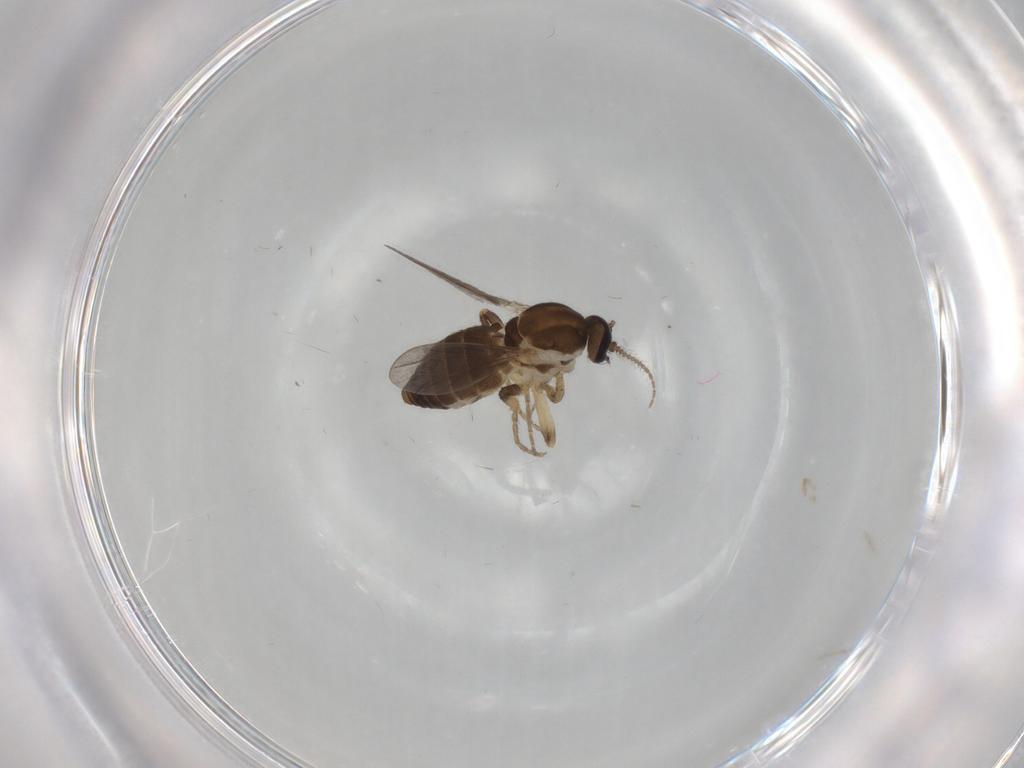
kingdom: Animalia
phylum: Arthropoda
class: Insecta
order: Diptera
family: Ceratopogonidae
